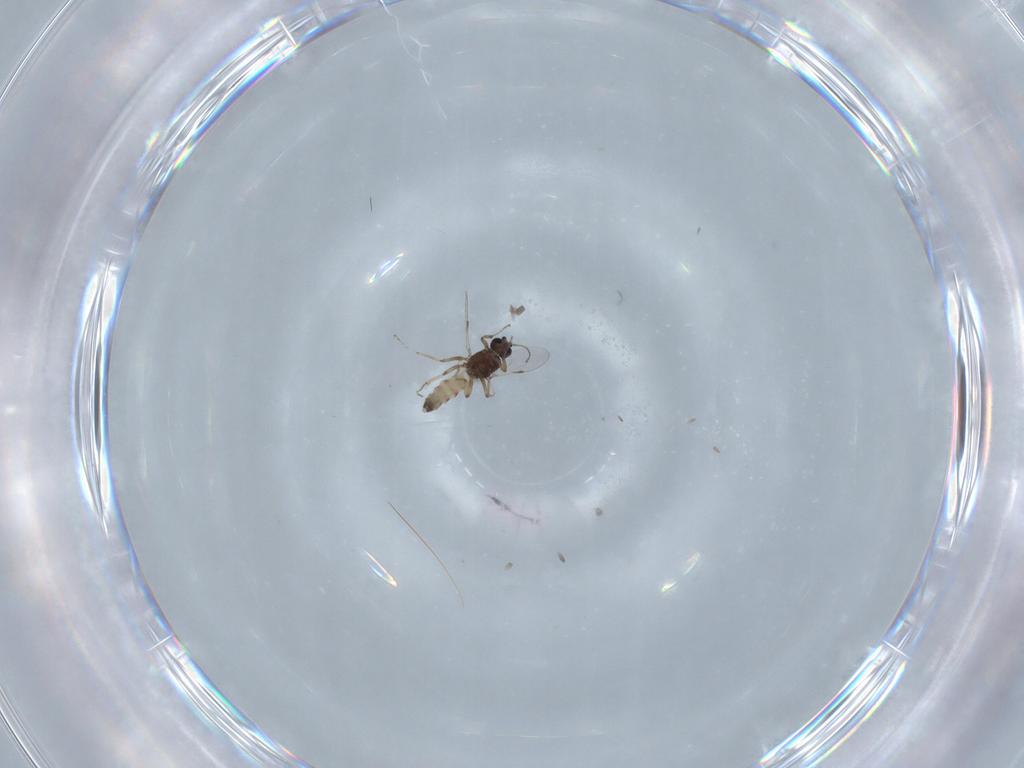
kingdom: Animalia
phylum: Arthropoda
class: Insecta
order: Diptera
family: Ceratopogonidae
